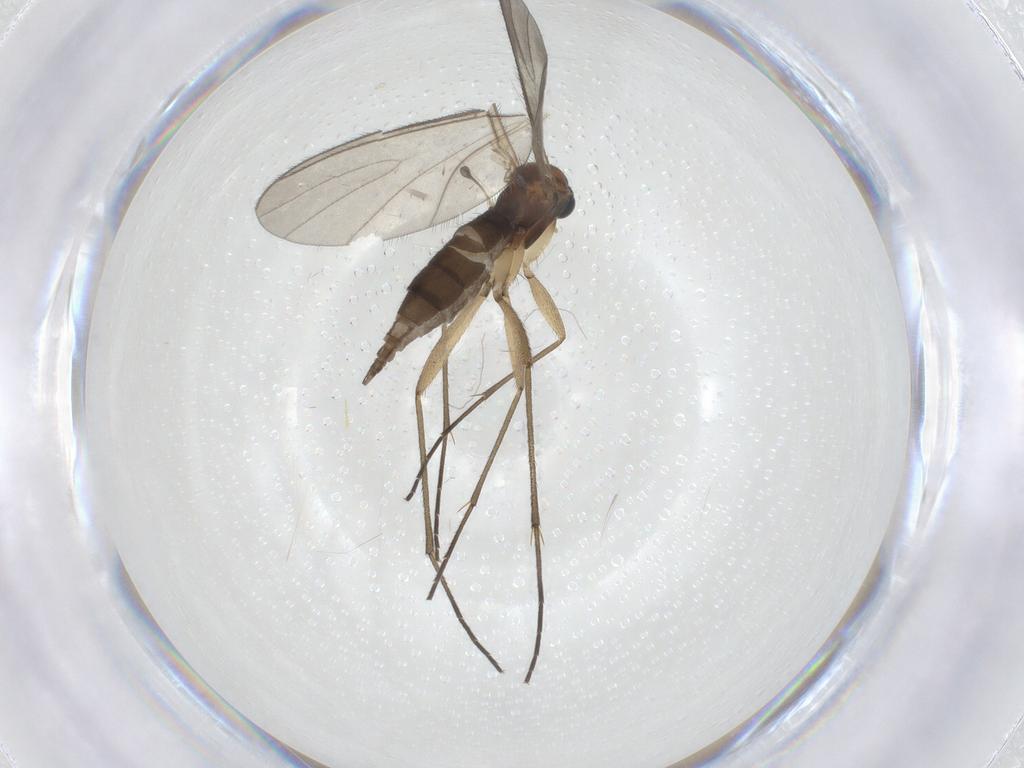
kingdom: Animalia
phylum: Arthropoda
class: Insecta
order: Diptera
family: Sciaridae
